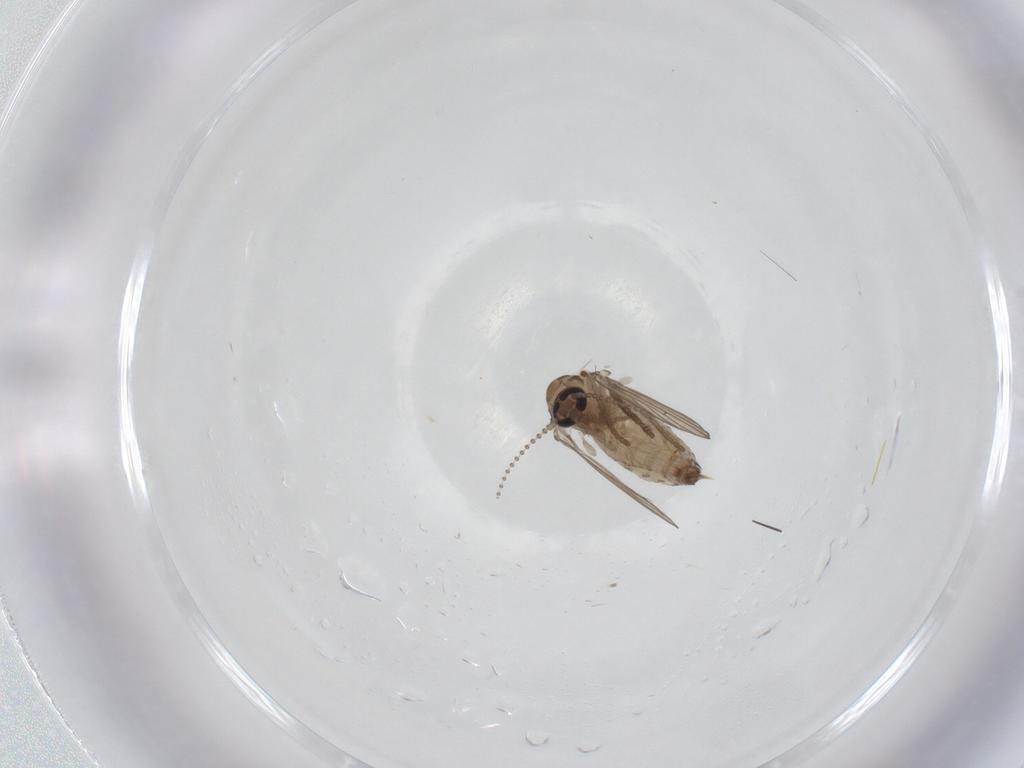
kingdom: Animalia
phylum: Arthropoda
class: Insecta
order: Diptera
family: Psychodidae
